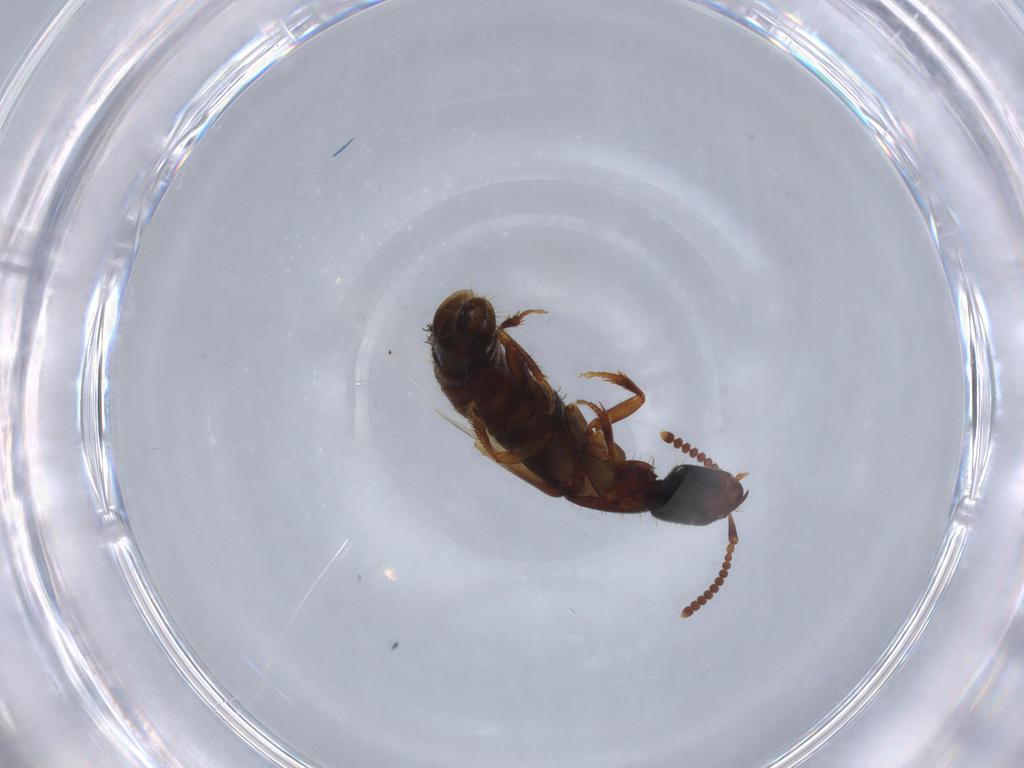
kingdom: Animalia
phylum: Arthropoda
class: Insecta
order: Coleoptera
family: Staphylinidae
